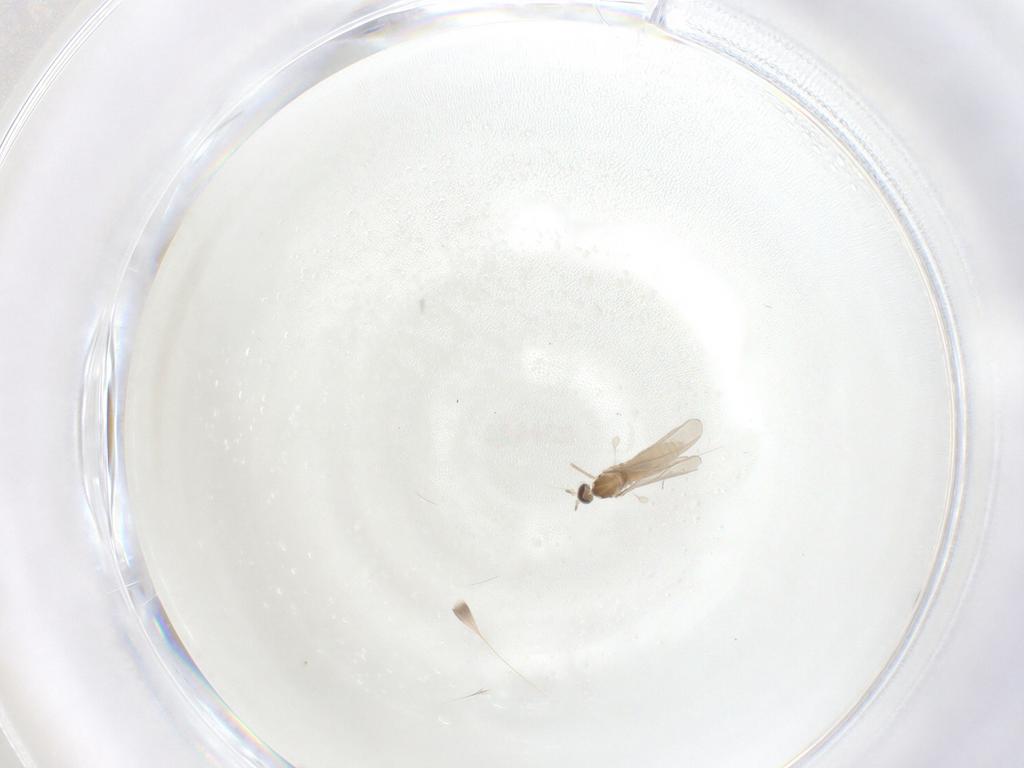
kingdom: Animalia
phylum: Arthropoda
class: Insecta
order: Diptera
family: Cecidomyiidae
